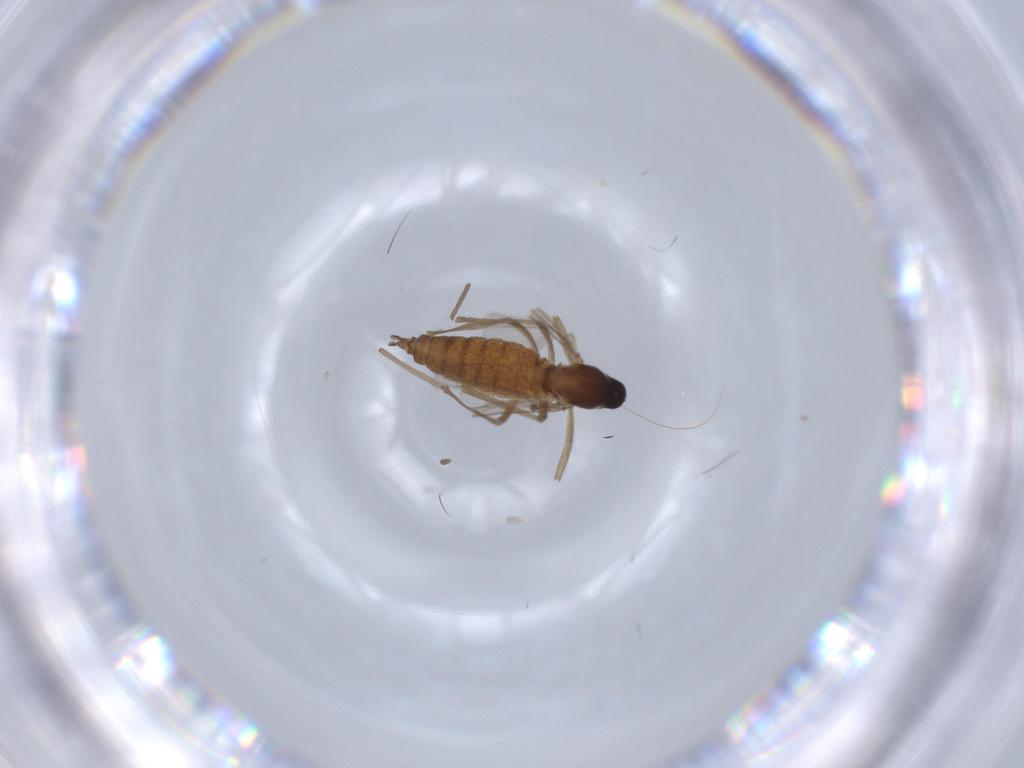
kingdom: Animalia
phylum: Arthropoda
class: Insecta
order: Diptera
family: Cecidomyiidae
